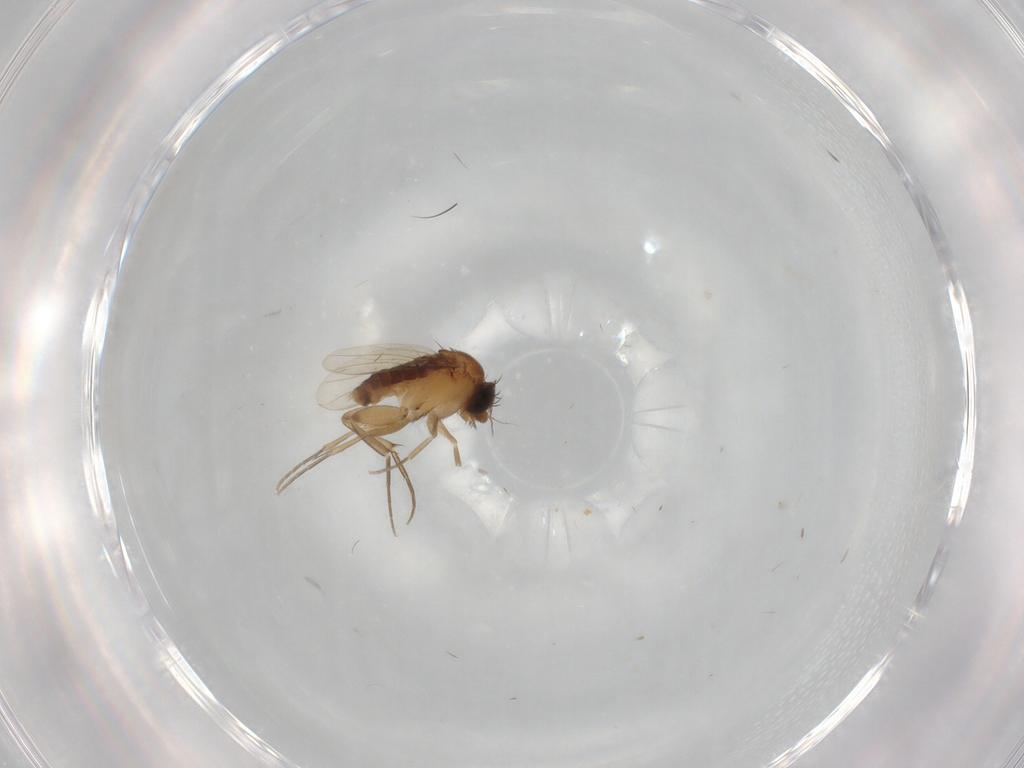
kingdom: Animalia
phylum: Arthropoda
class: Insecta
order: Diptera
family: Phoridae
